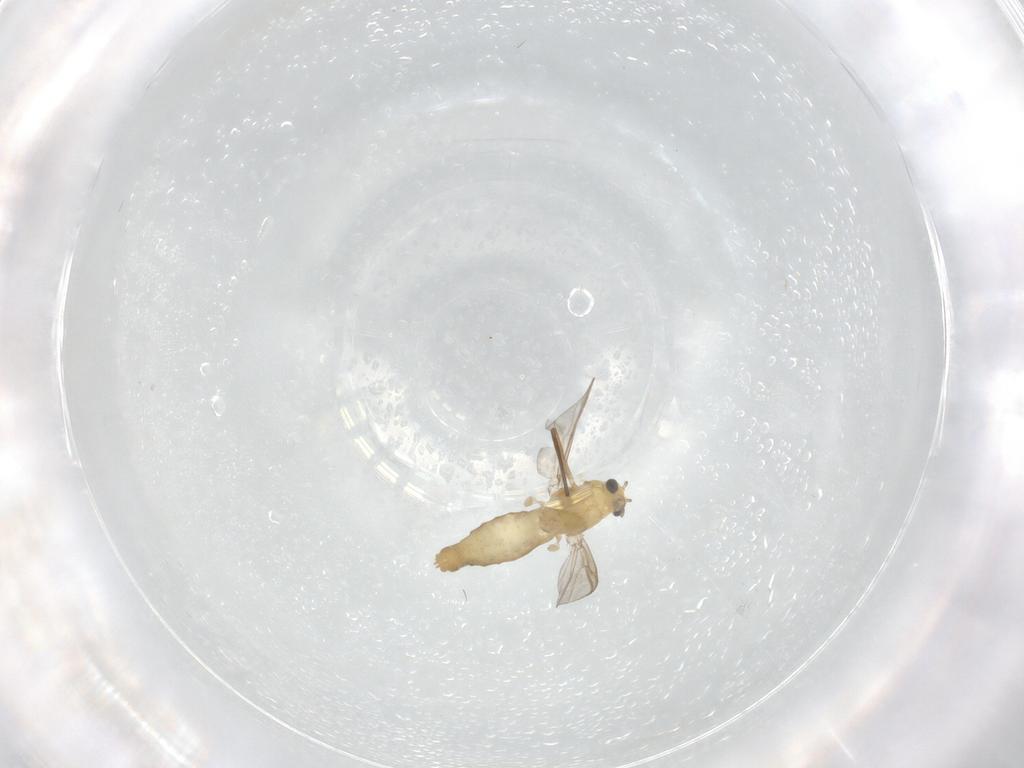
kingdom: Animalia
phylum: Arthropoda
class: Insecta
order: Diptera
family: Chironomidae
